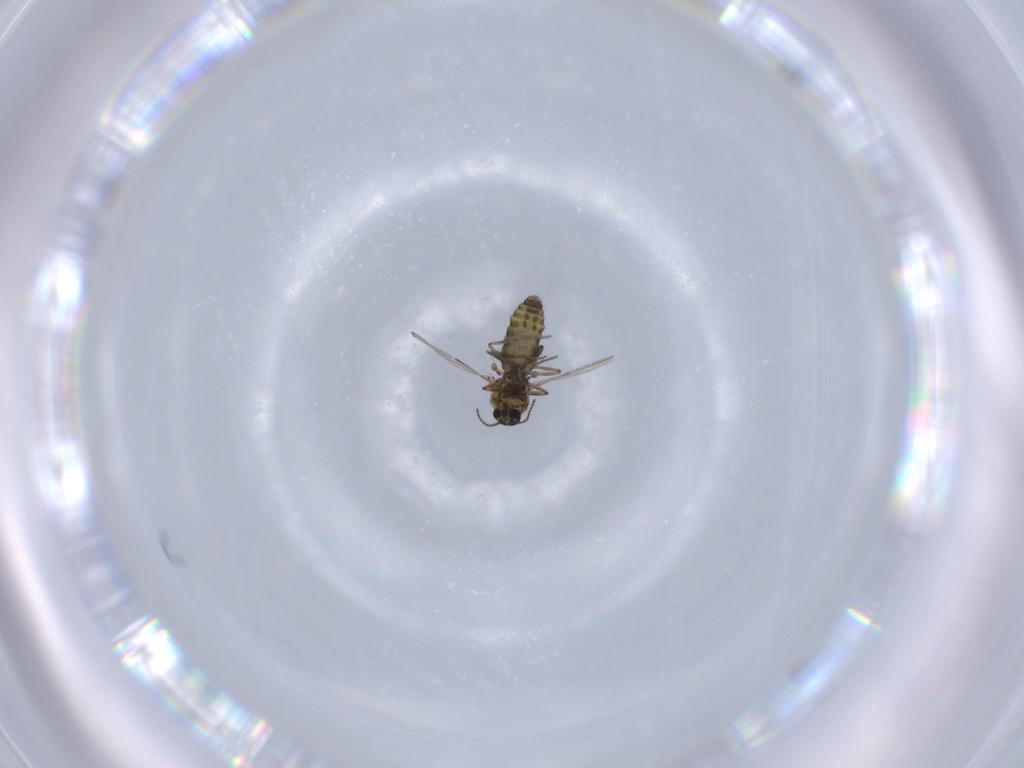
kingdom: Animalia
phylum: Arthropoda
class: Insecta
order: Diptera
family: Ceratopogonidae
